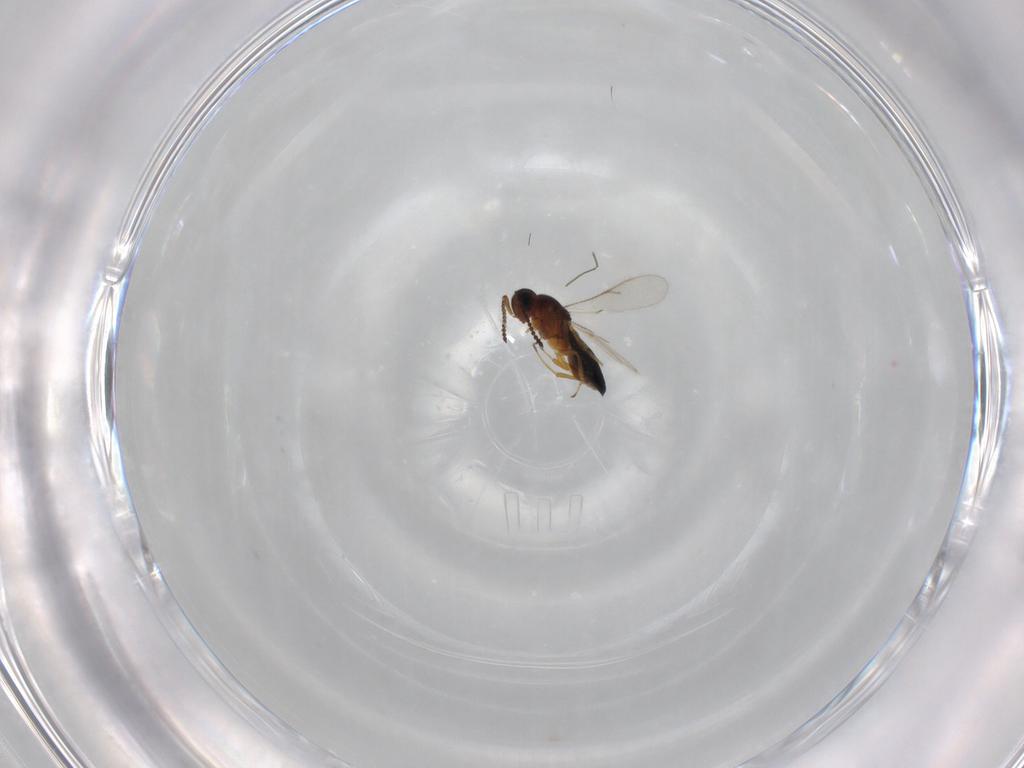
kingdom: Animalia
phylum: Arthropoda
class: Insecta
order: Hymenoptera
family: Scelionidae
